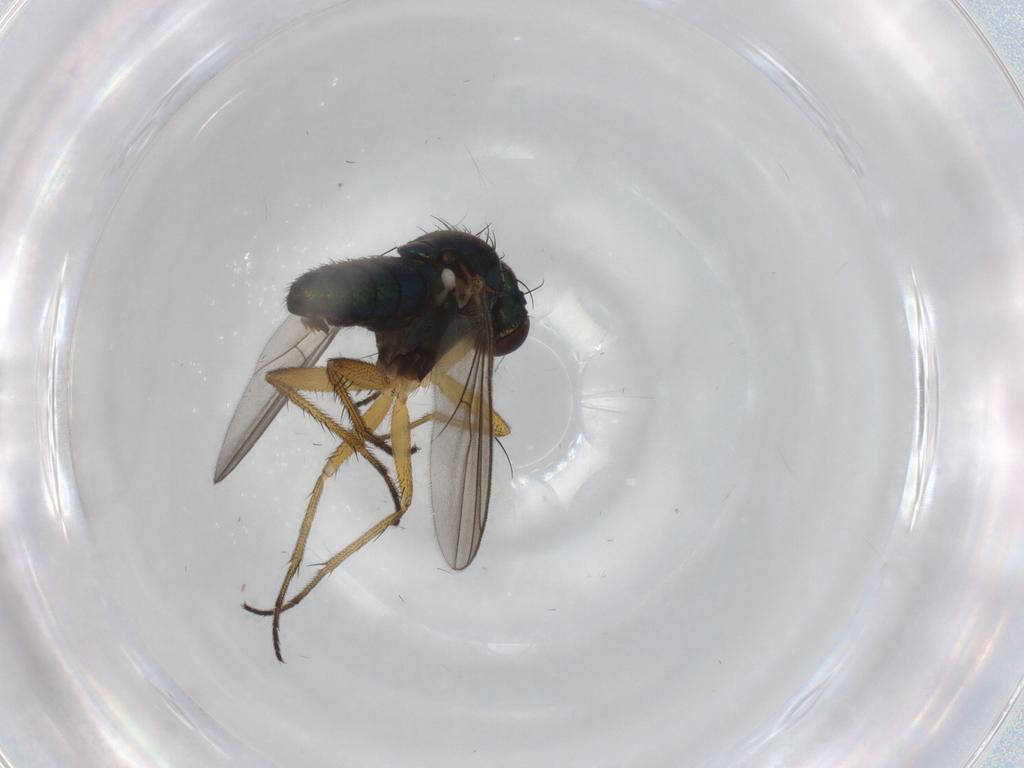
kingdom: Animalia
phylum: Arthropoda
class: Insecta
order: Diptera
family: Dolichopodidae
